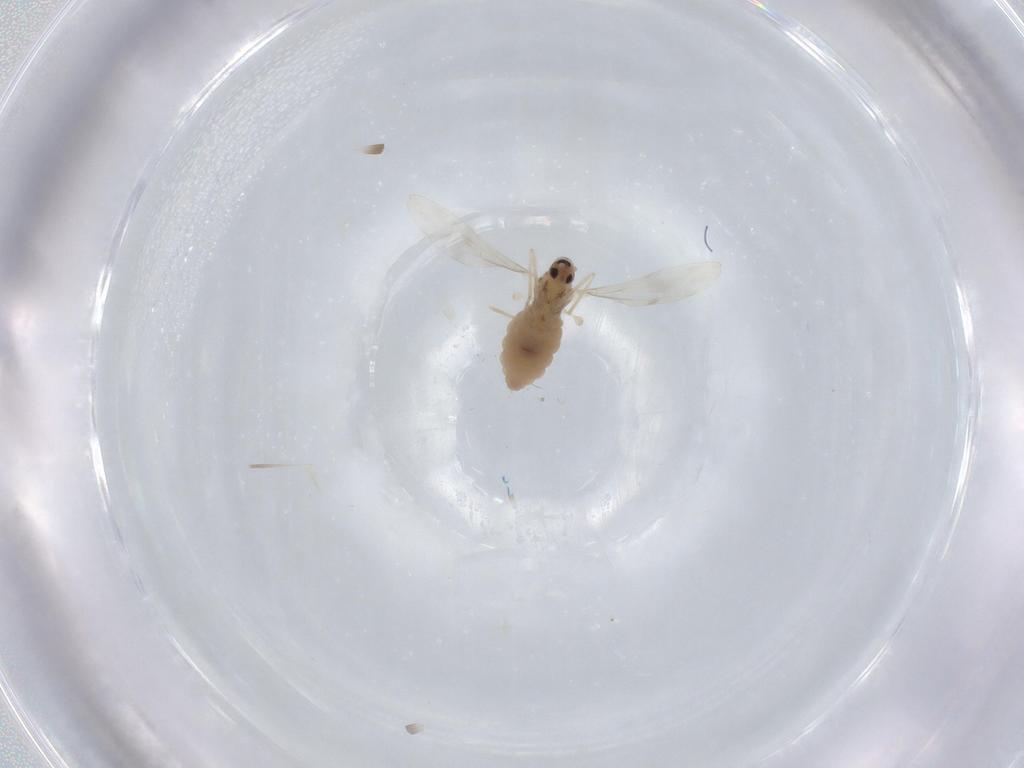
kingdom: Animalia
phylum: Arthropoda
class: Insecta
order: Diptera
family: Cecidomyiidae
